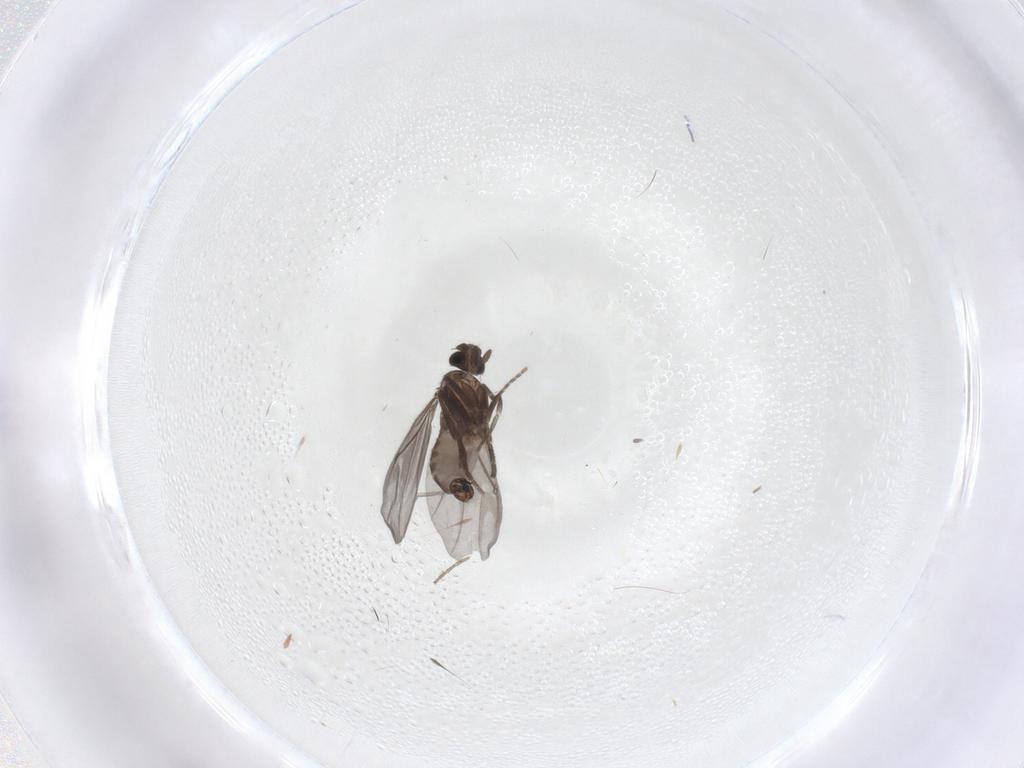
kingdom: Animalia
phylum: Arthropoda
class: Insecta
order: Diptera
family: Phoridae
